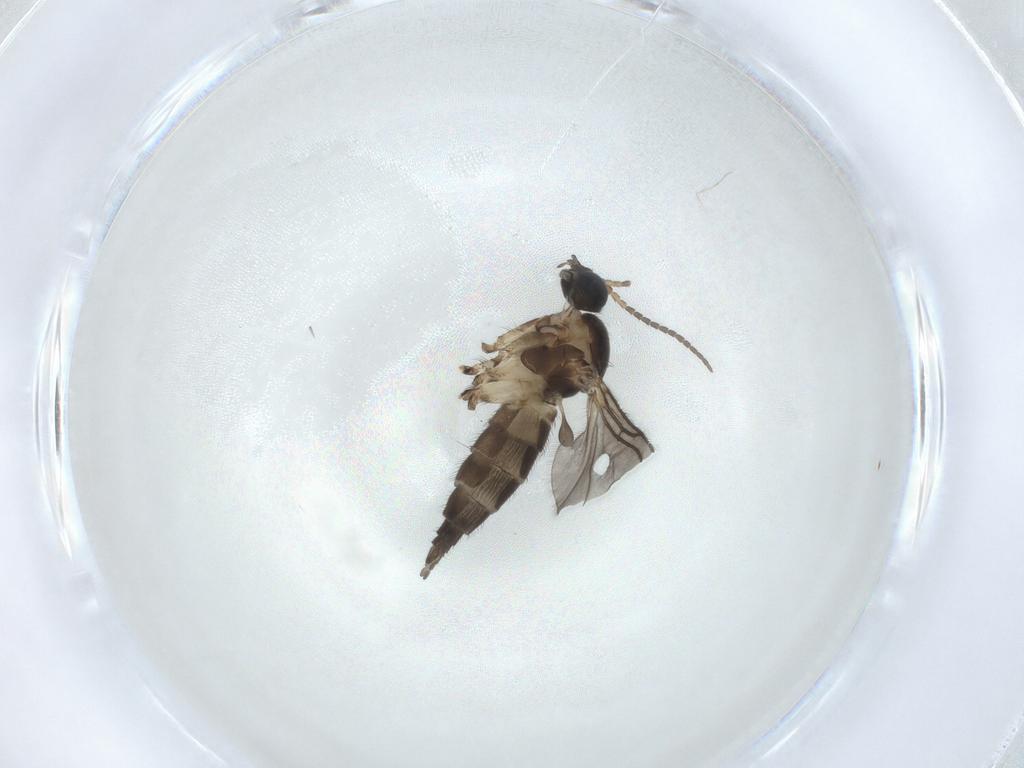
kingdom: Animalia
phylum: Arthropoda
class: Insecta
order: Diptera
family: Sciaridae
